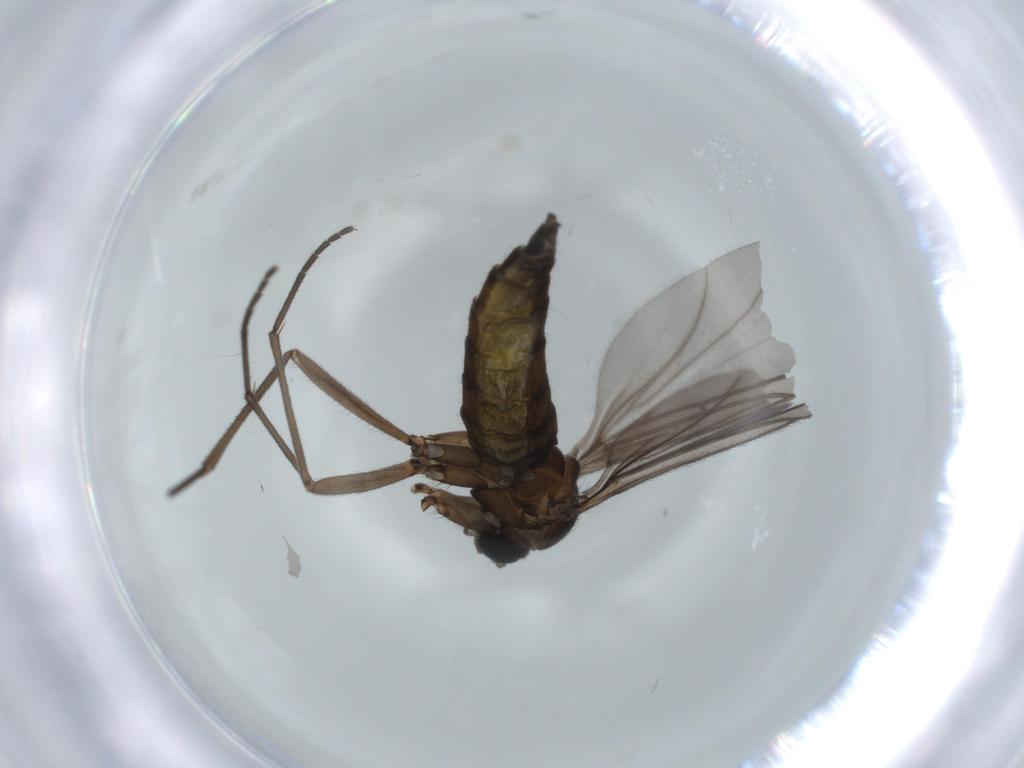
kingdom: Animalia
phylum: Arthropoda
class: Insecta
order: Diptera
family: Sciaridae
